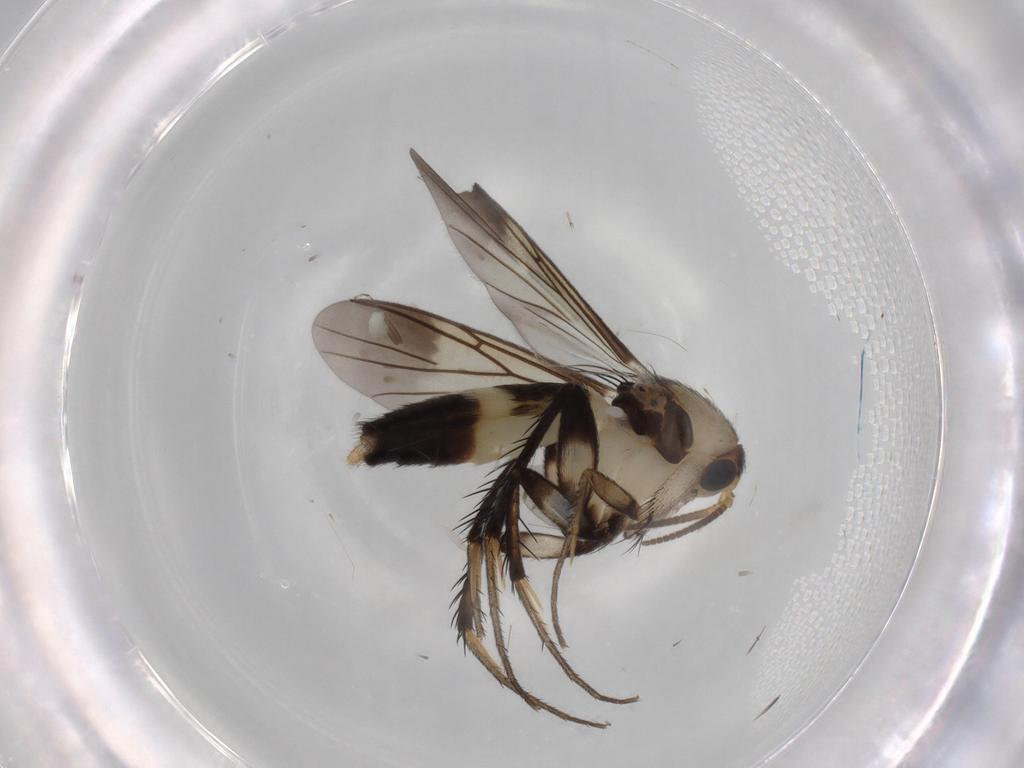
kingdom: Animalia
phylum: Arthropoda
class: Insecta
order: Diptera
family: Mycetophilidae
